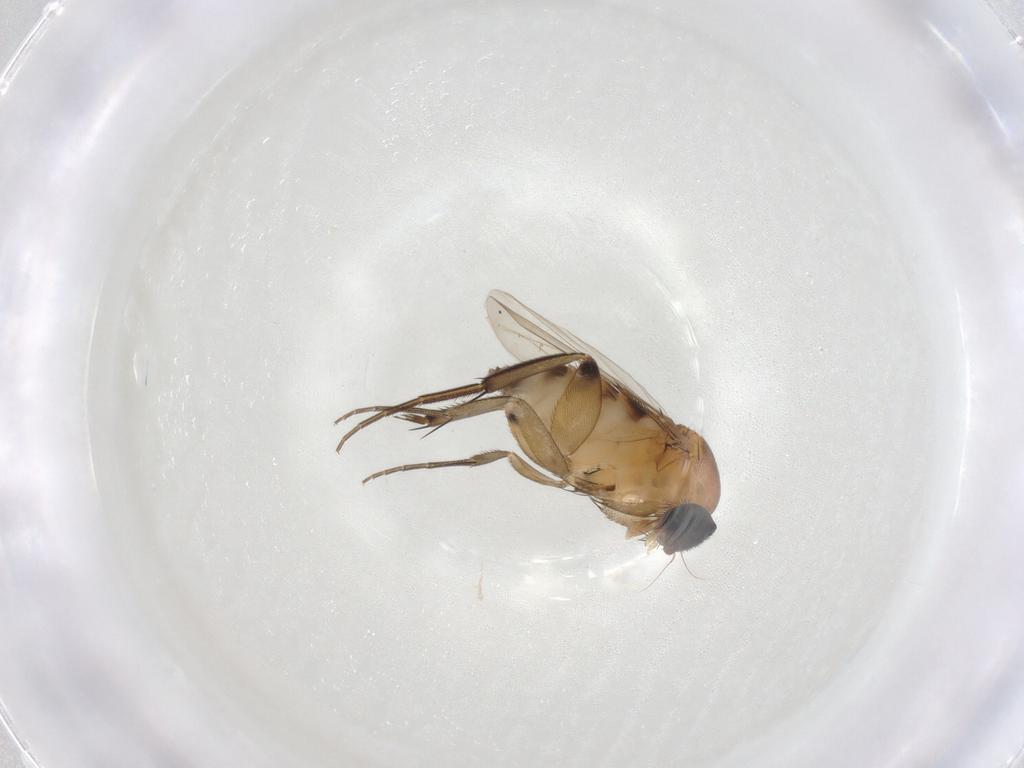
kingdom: Animalia
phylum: Arthropoda
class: Insecta
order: Diptera
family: Phoridae
